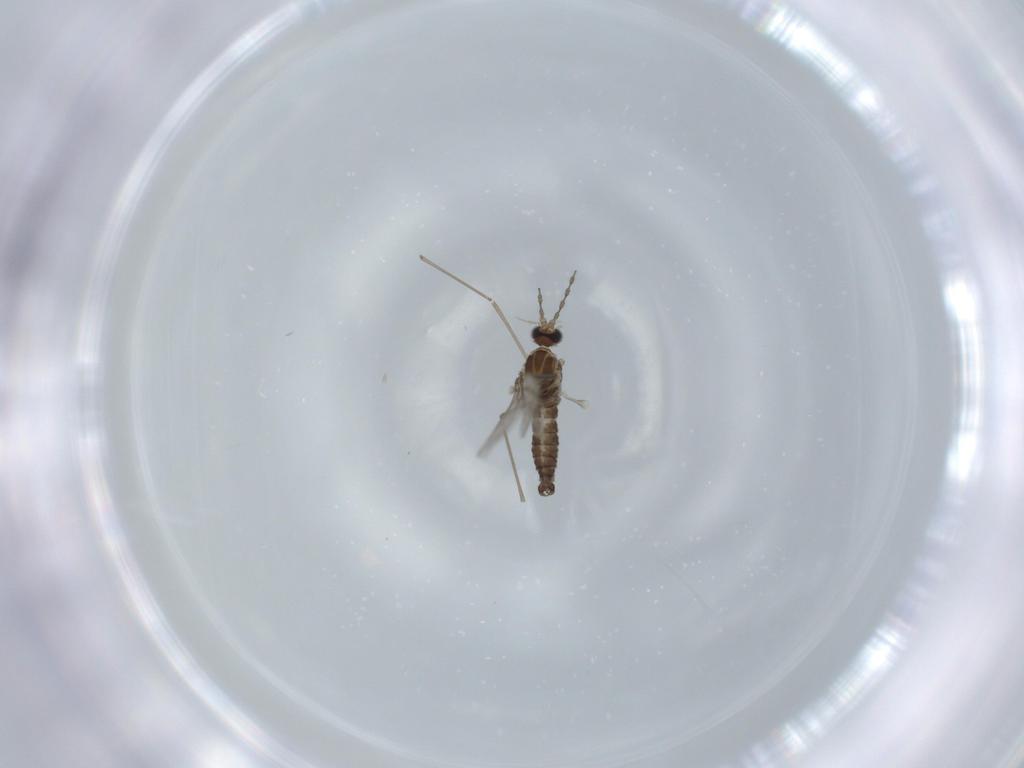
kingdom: Animalia
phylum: Arthropoda
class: Insecta
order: Diptera
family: Cecidomyiidae
